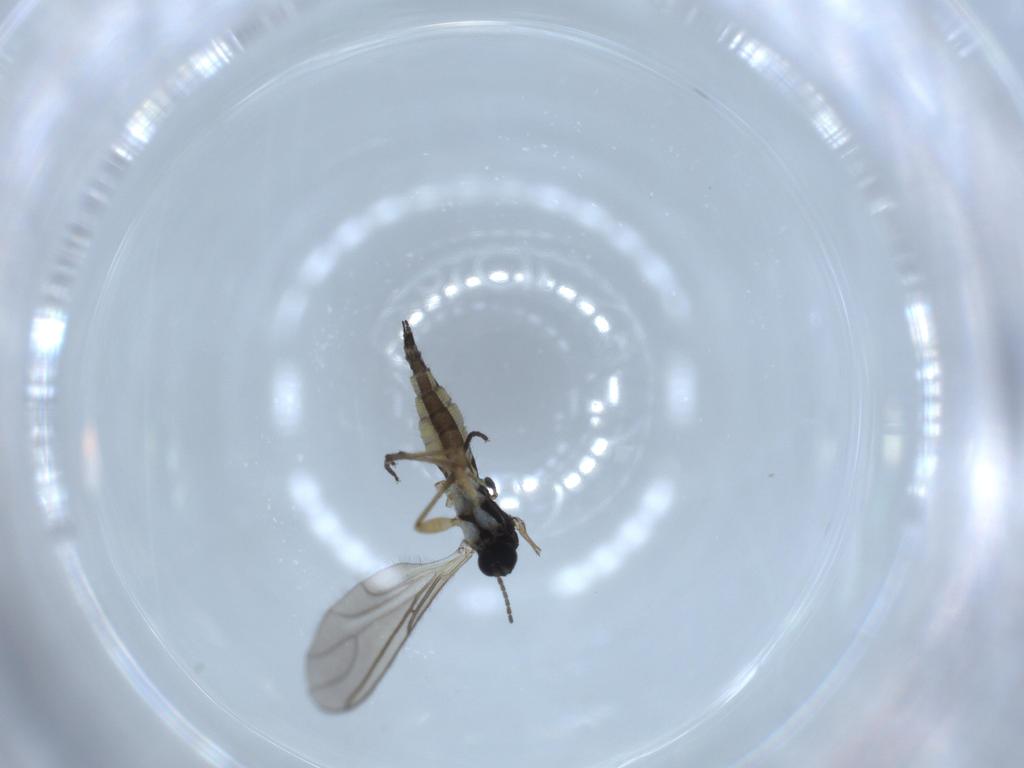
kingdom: Animalia
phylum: Arthropoda
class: Insecta
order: Diptera
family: Sciaridae
